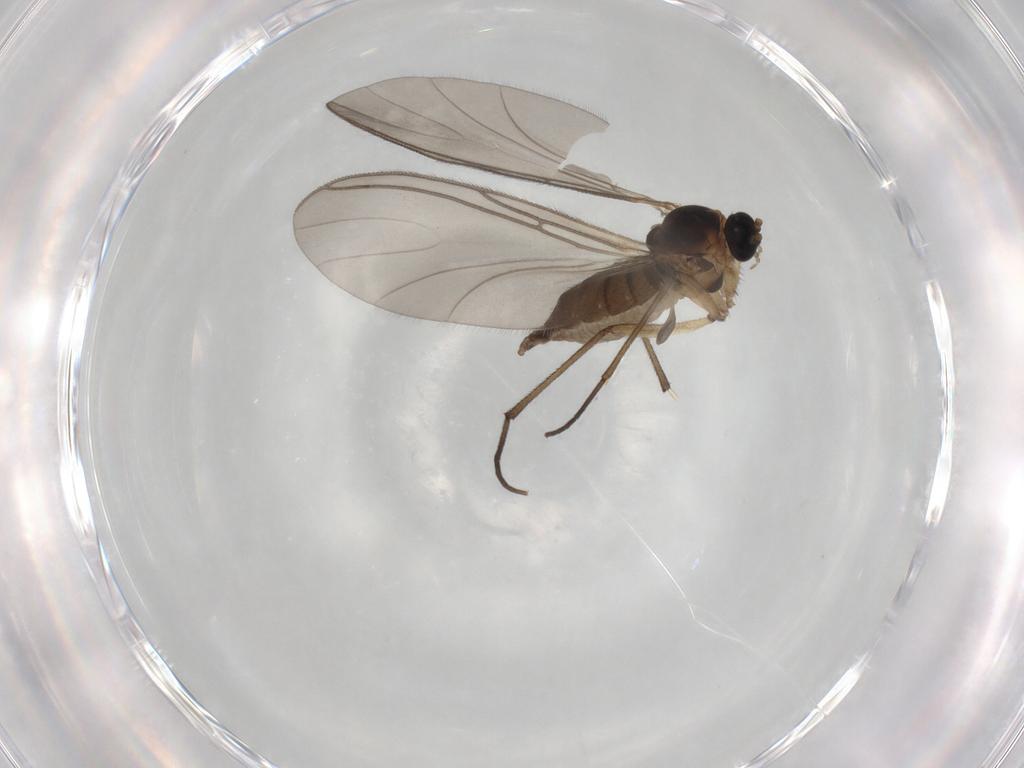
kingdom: Animalia
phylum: Arthropoda
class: Insecta
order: Diptera
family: Sciaridae
